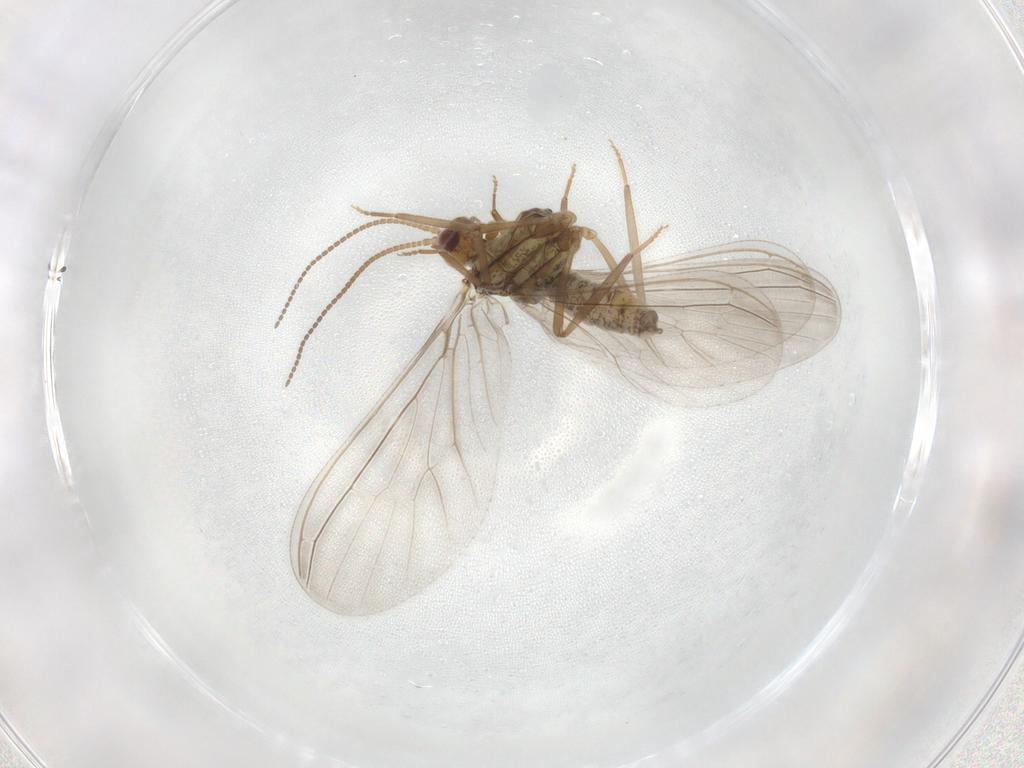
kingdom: Animalia
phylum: Arthropoda
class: Insecta
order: Neuroptera
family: Coniopterygidae
